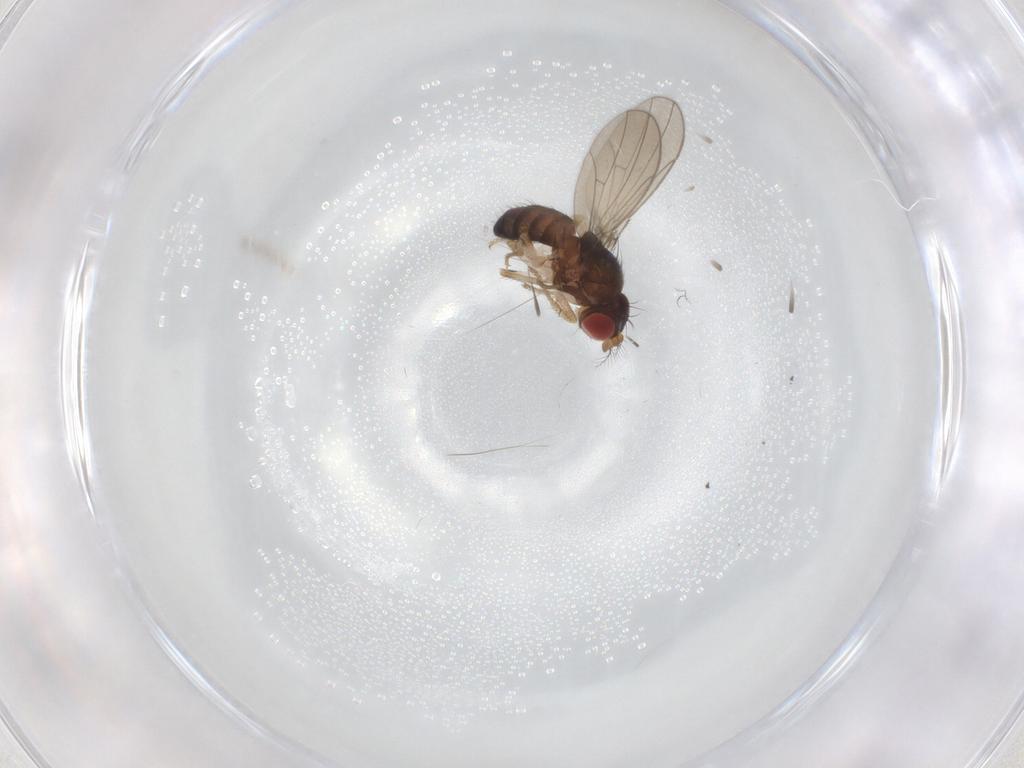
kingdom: Animalia
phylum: Arthropoda
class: Insecta
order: Diptera
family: Drosophilidae
